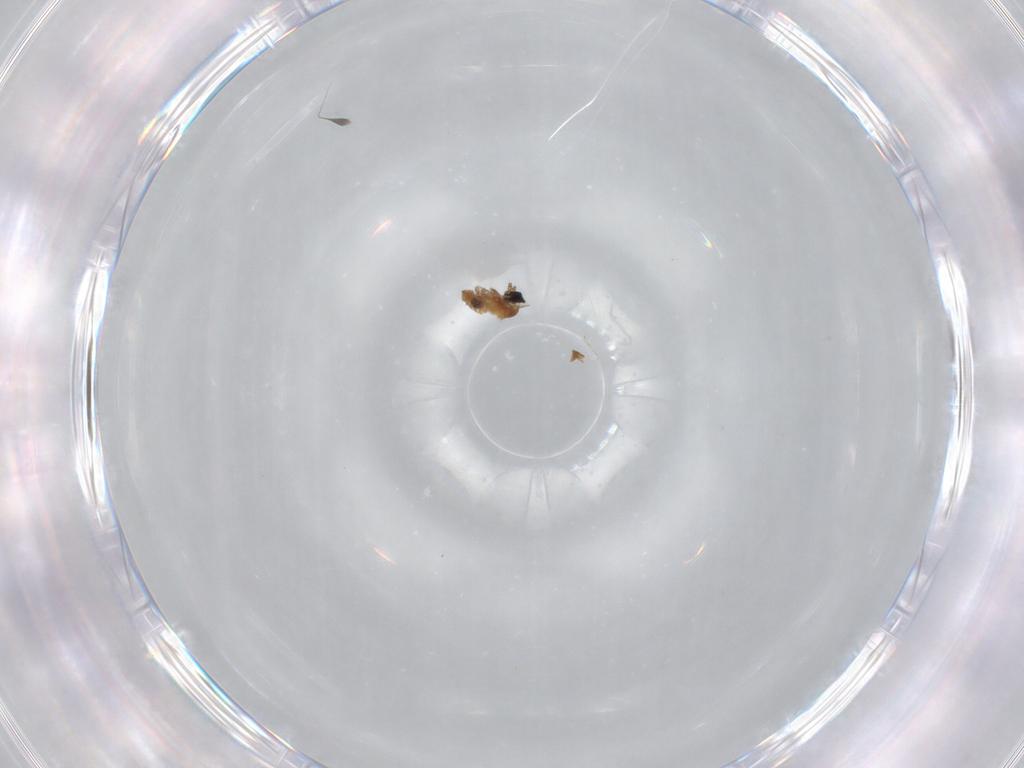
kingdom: Animalia
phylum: Arthropoda
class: Insecta
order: Diptera
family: Cecidomyiidae
